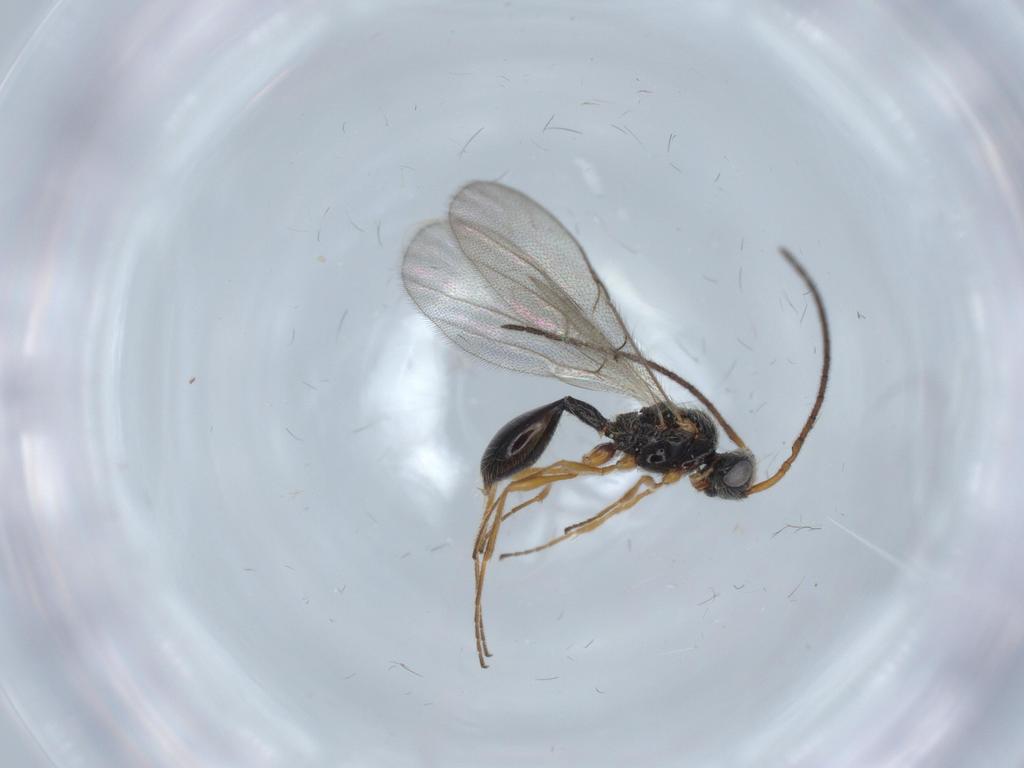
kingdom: Animalia
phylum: Arthropoda
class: Insecta
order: Hymenoptera
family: Diapriidae
